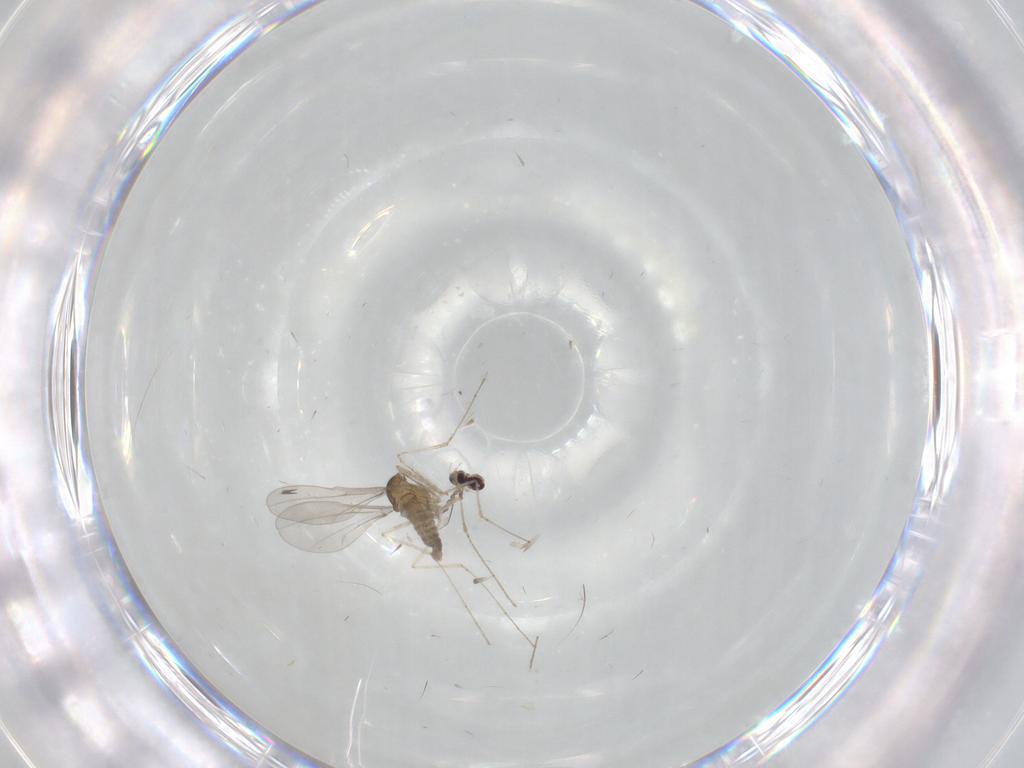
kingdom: Animalia
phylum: Arthropoda
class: Insecta
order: Diptera
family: Cecidomyiidae
